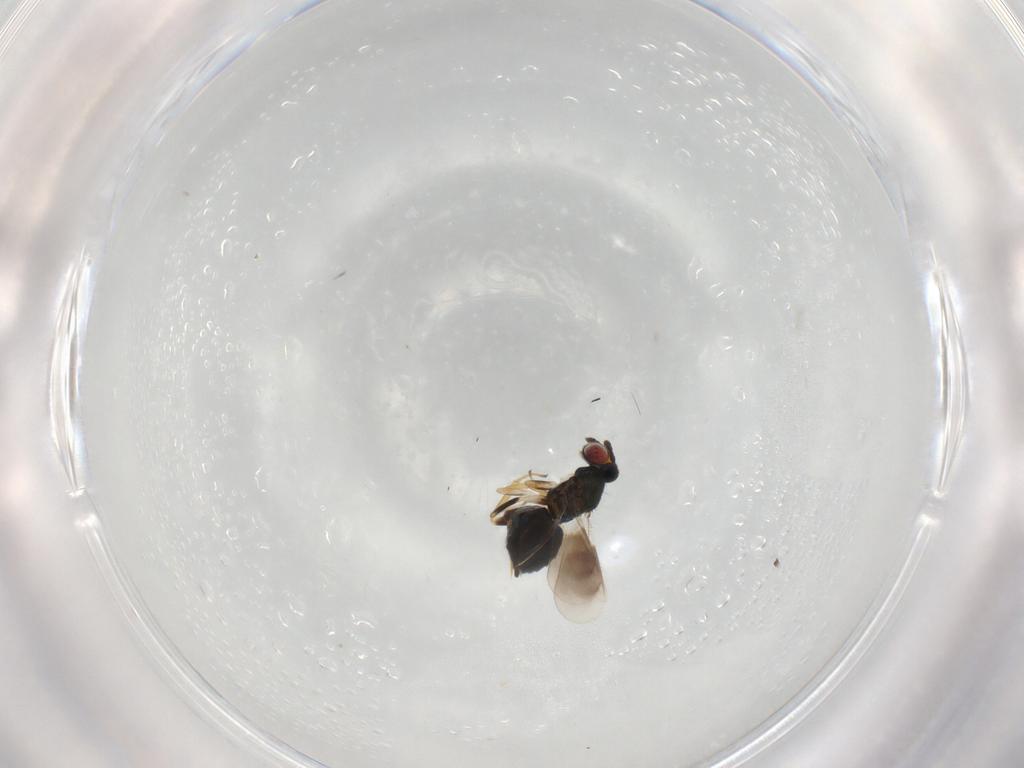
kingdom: Animalia
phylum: Arthropoda
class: Insecta
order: Hymenoptera
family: Eulophidae
